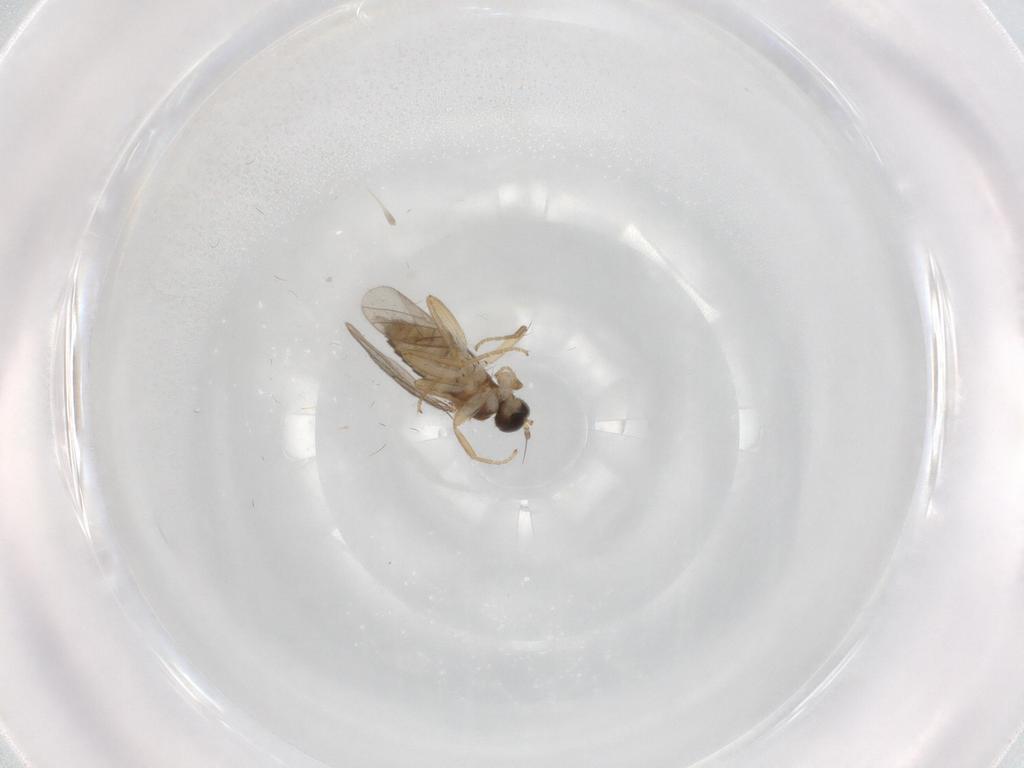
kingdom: Animalia
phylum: Arthropoda
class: Insecta
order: Diptera
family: Hybotidae
